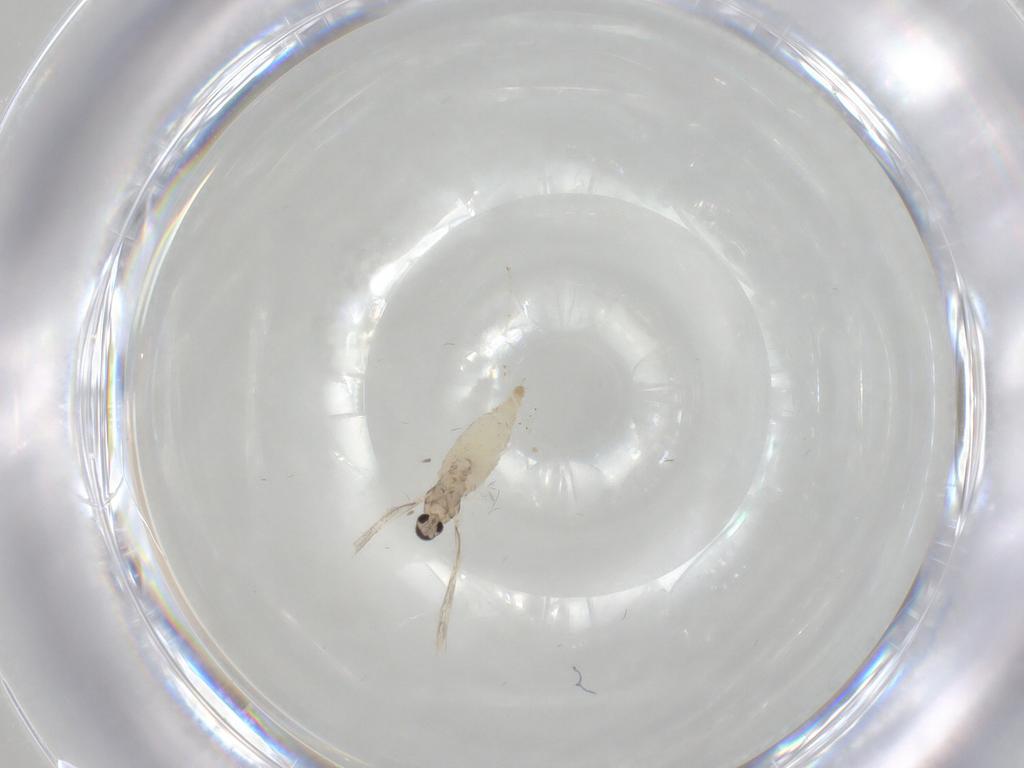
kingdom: Animalia
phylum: Arthropoda
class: Insecta
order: Diptera
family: Cecidomyiidae
